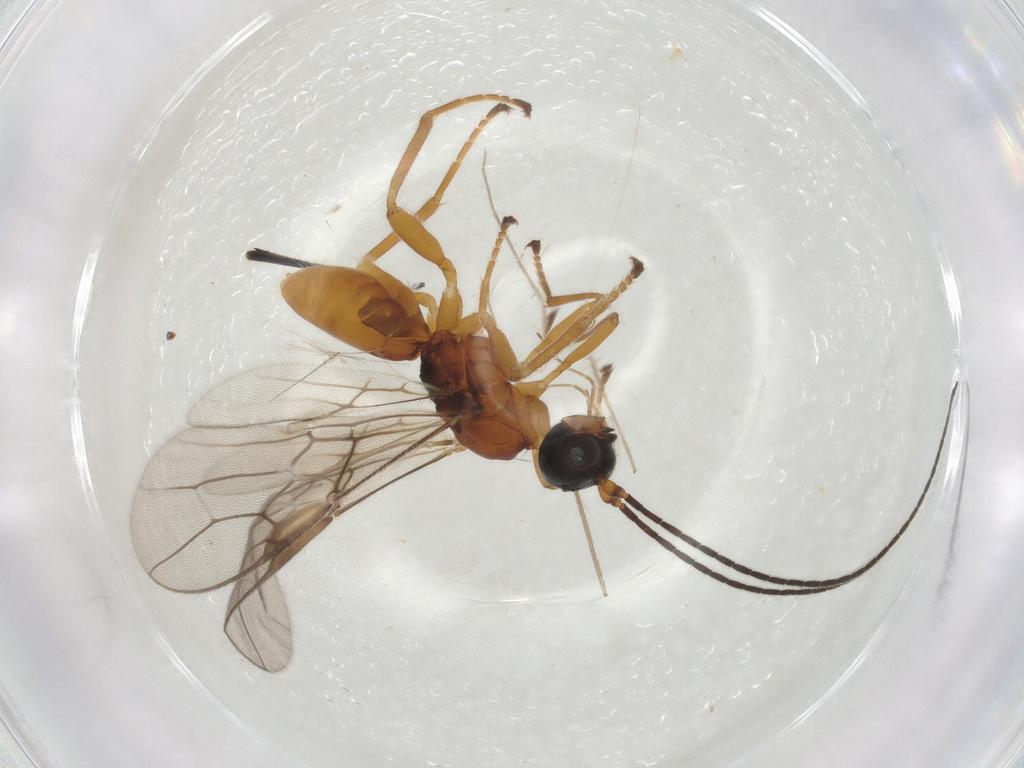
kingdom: Animalia
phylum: Arthropoda
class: Insecta
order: Hymenoptera
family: Braconidae
